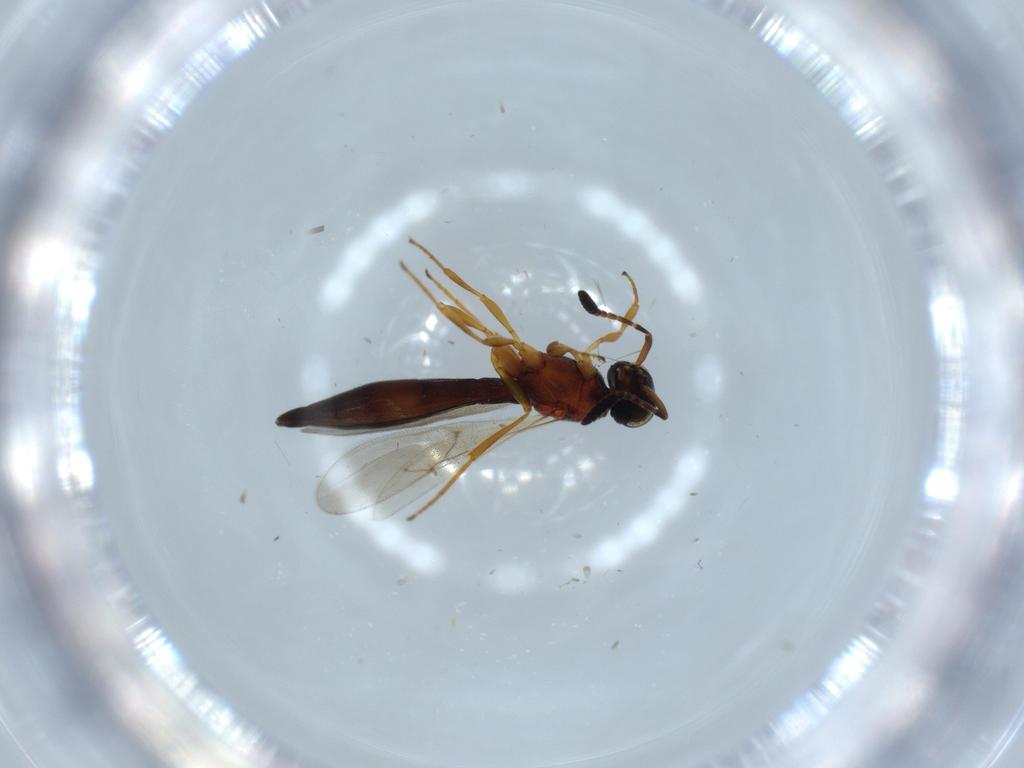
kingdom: Animalia
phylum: Arthropoda
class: Insecta
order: Hymenoptera
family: Scelionidae
